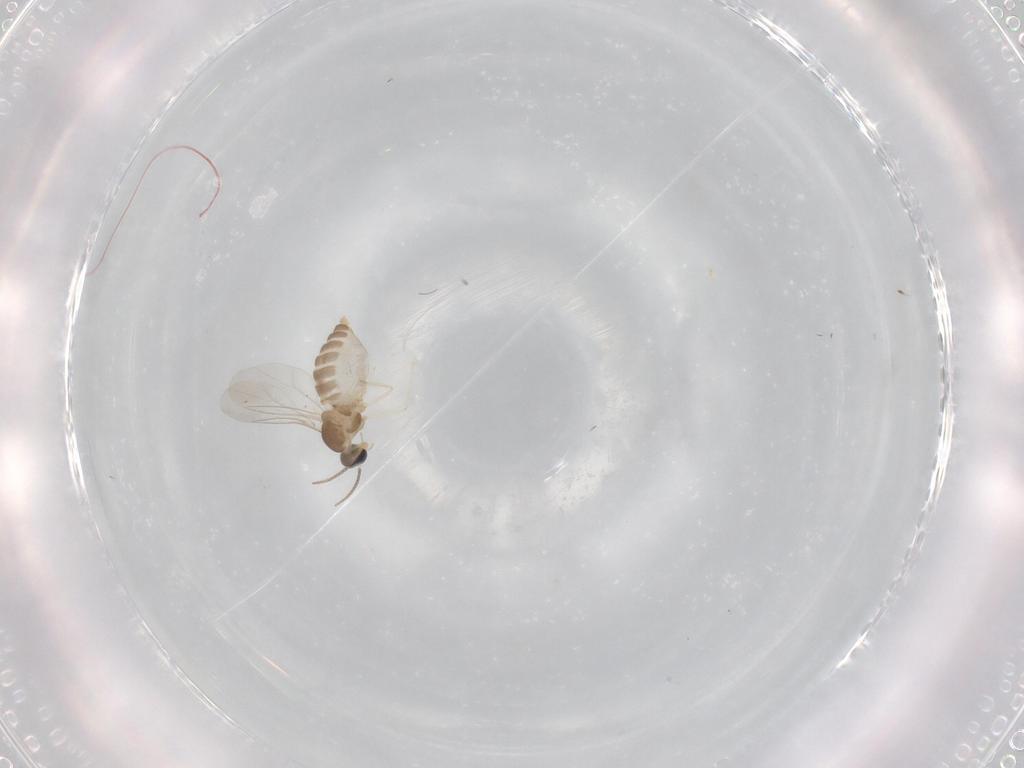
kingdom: Animalia
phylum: Arthropoda
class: Insecta
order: Diptera
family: Cecidomyiidae
